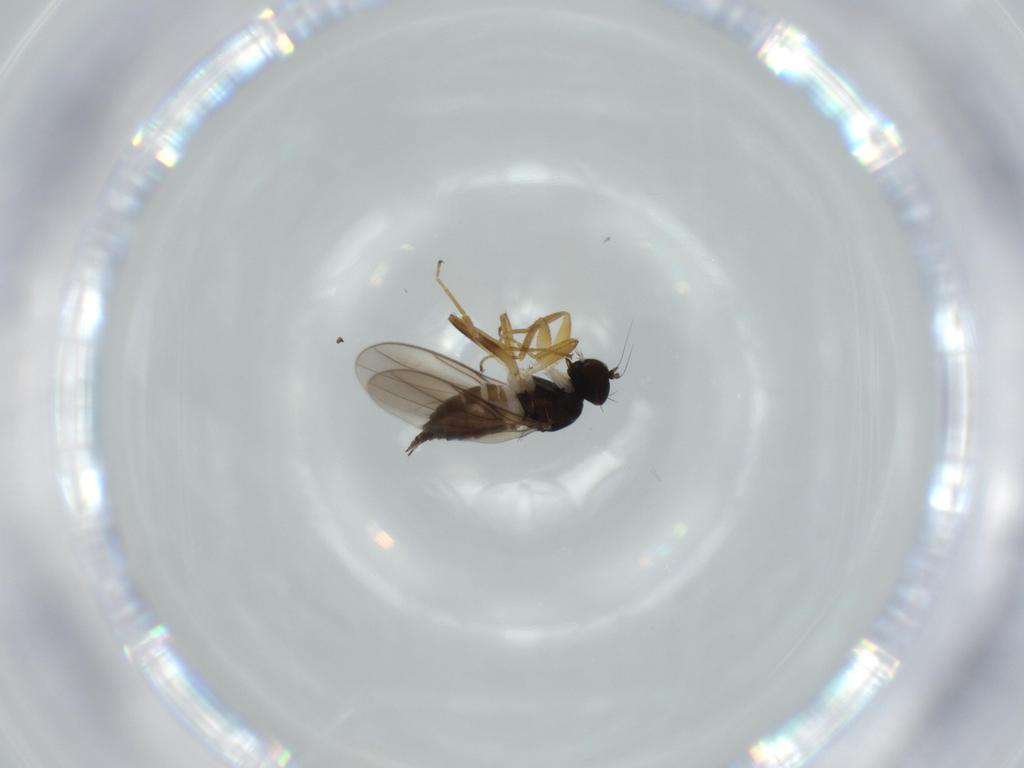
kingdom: Animalia
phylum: Arthropoda
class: Insecta
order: Diptera
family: Hybotidae
